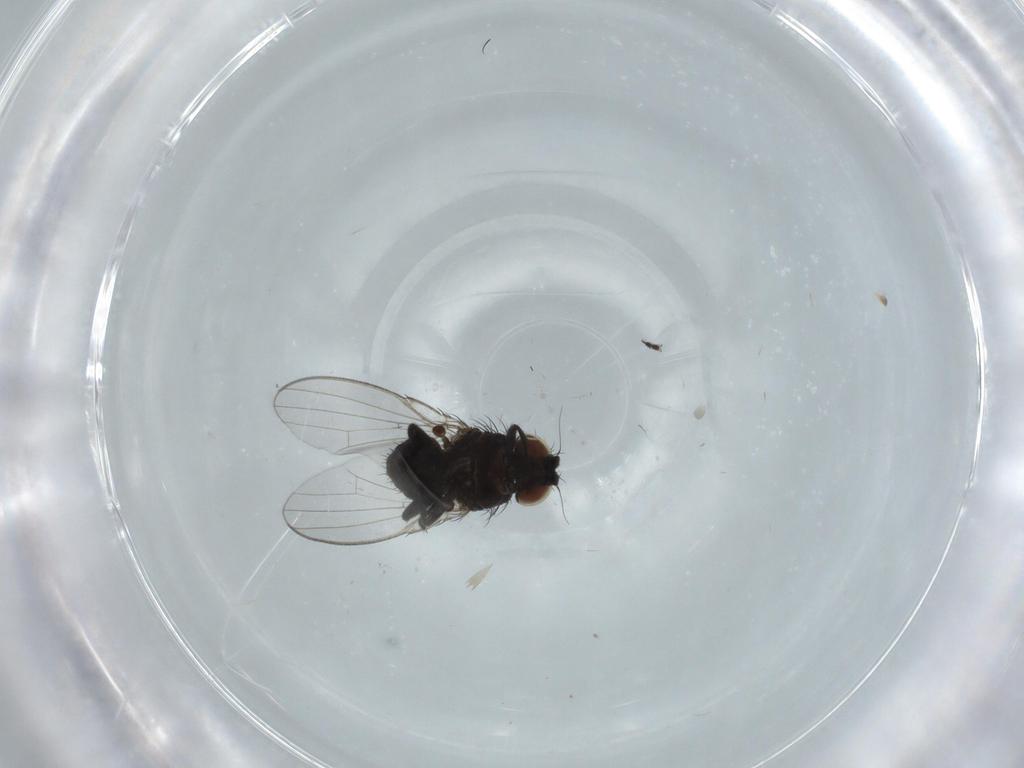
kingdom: Animalia
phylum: Arthropoda
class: Insecta
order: Diptera
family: Milichiidae
